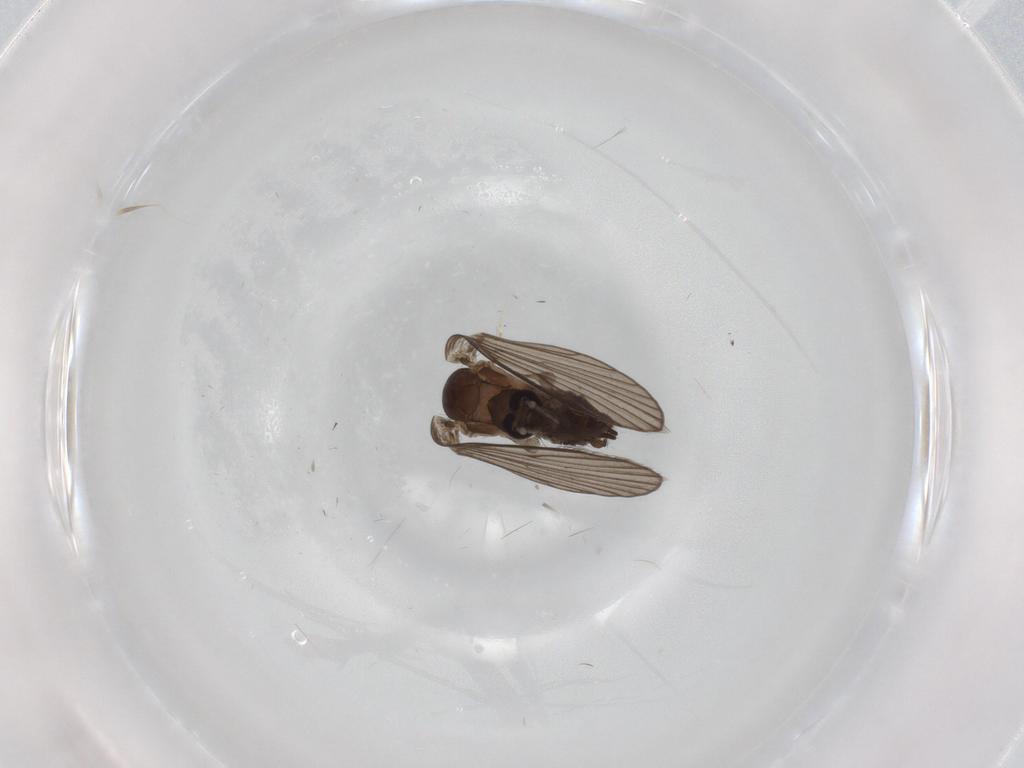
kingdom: Animalia
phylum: Arthropoda
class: Insecta
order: Diptera
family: Psychodidae
